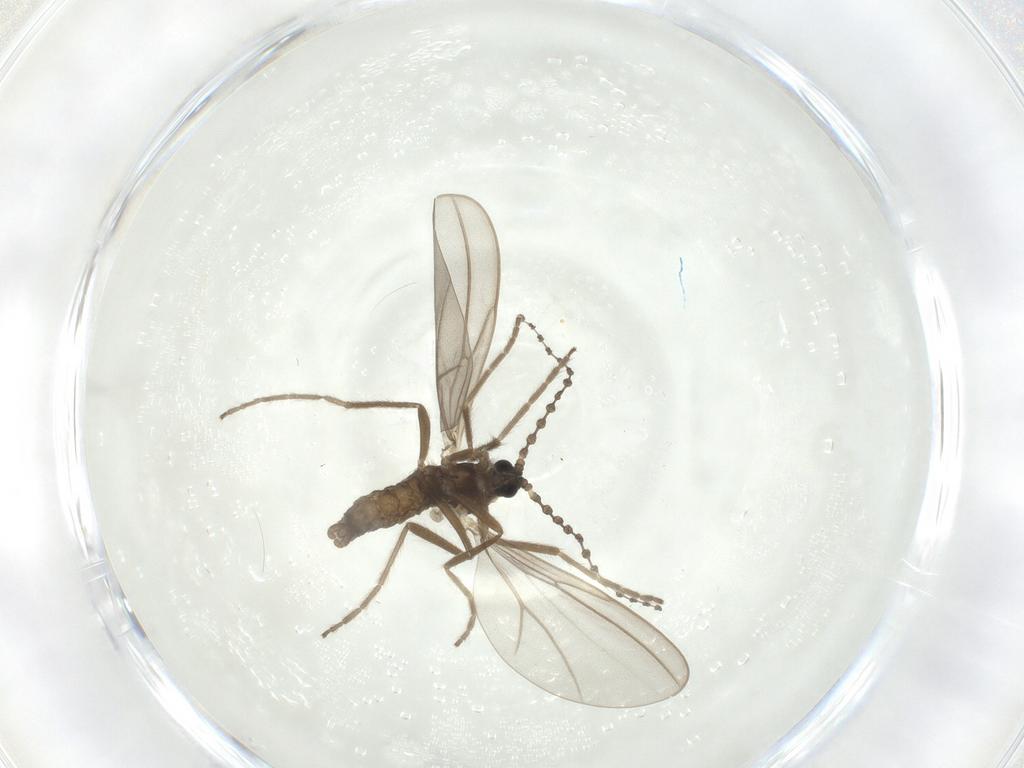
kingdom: Animalia
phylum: Arthropoda
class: Insecta
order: Diptera
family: Cecidomyiidae
